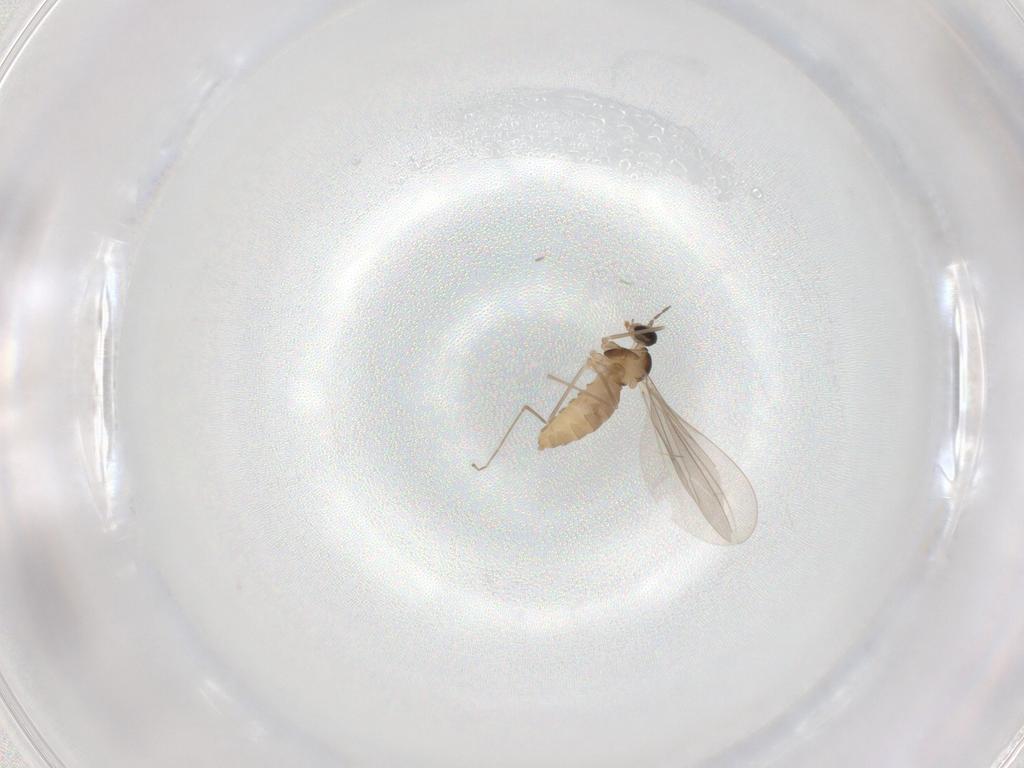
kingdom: Animalia
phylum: Arthropoda
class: Insecta
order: Diptera
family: Cecidomyiidae
